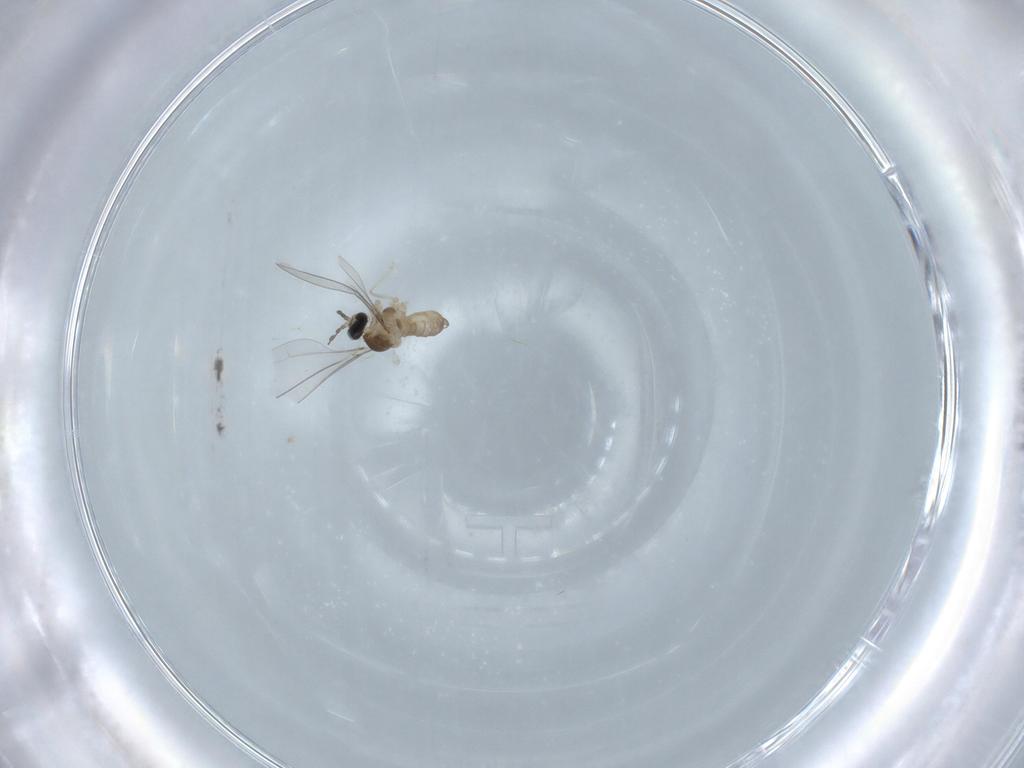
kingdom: Animalia
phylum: Arthropoda
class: Insecta
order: Diptera
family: Cecidomyiidae
